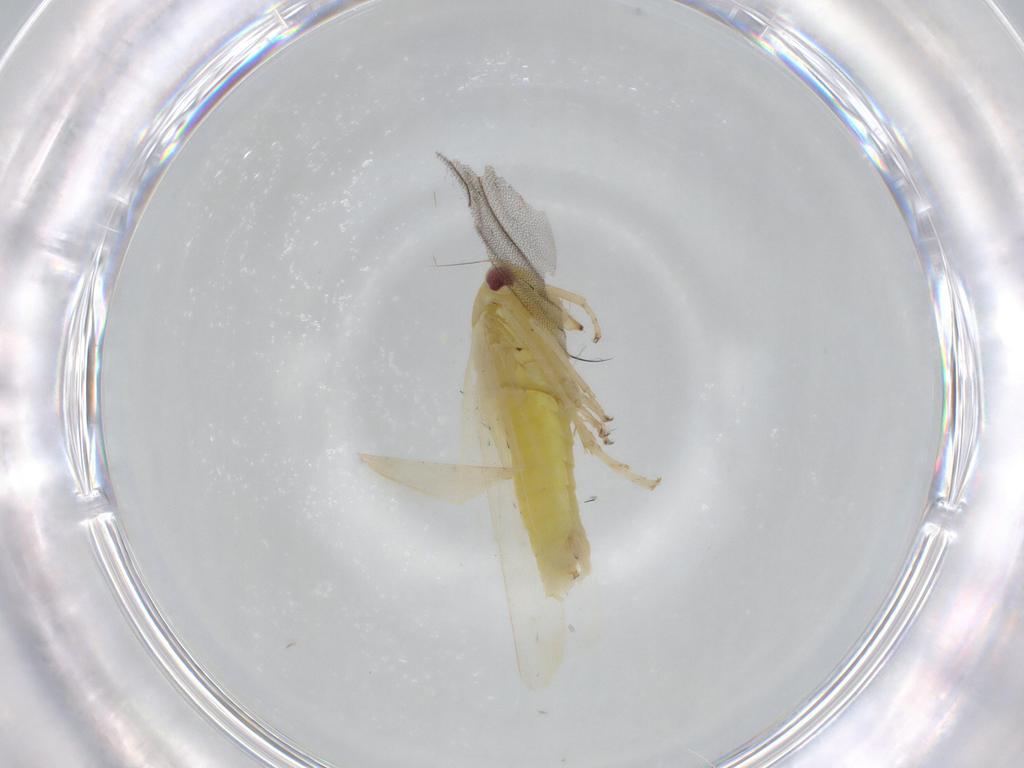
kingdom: Animalia
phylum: Arthropoda
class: Insecta
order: Hemiptera
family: Cicadellidae
